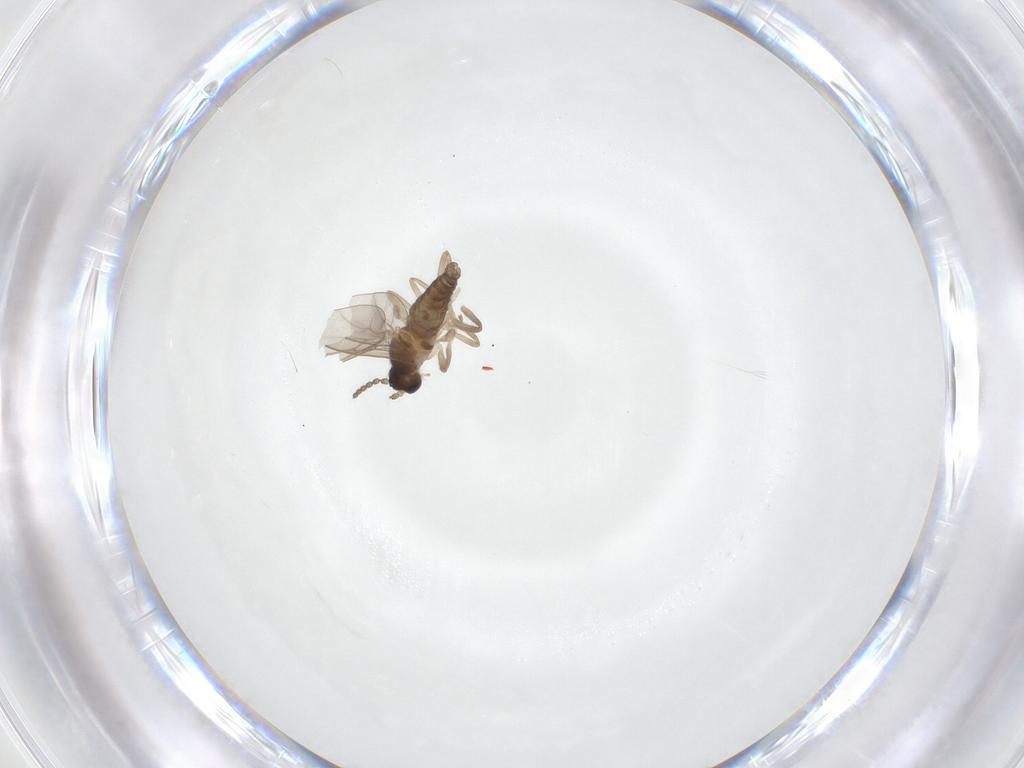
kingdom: Animalia
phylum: Arthropoda
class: Insecta
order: Diptera
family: Cecidomyiidae
